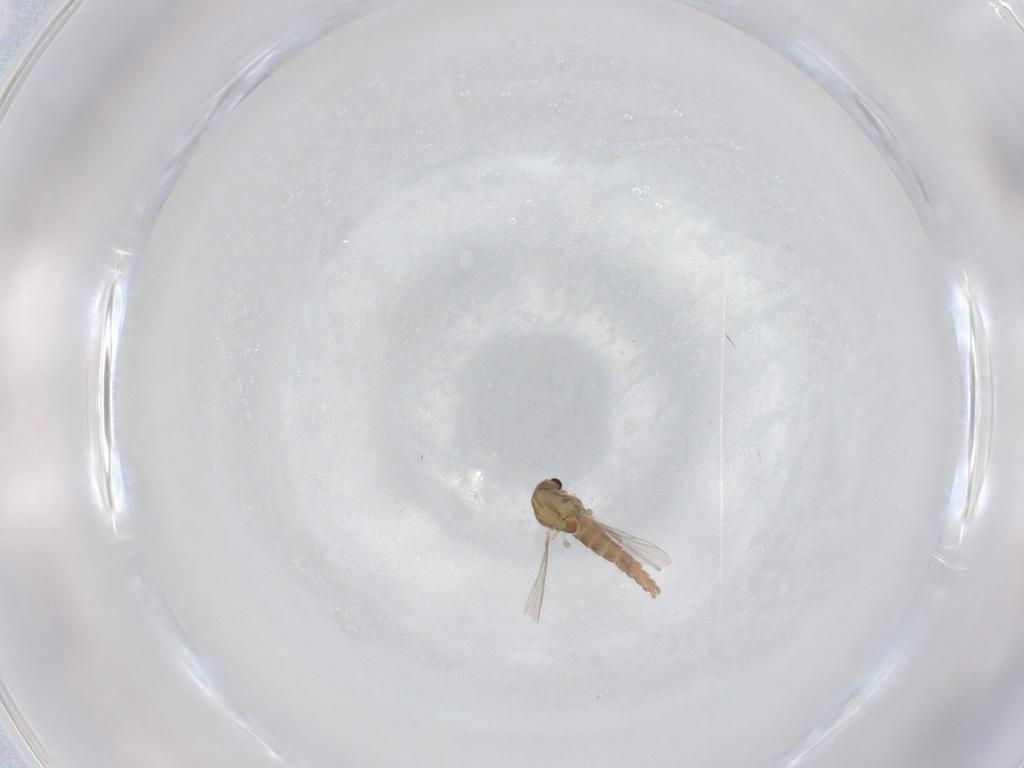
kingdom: Animalia
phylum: Arthropoda
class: Insecta
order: Diptera
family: Chironomidae
